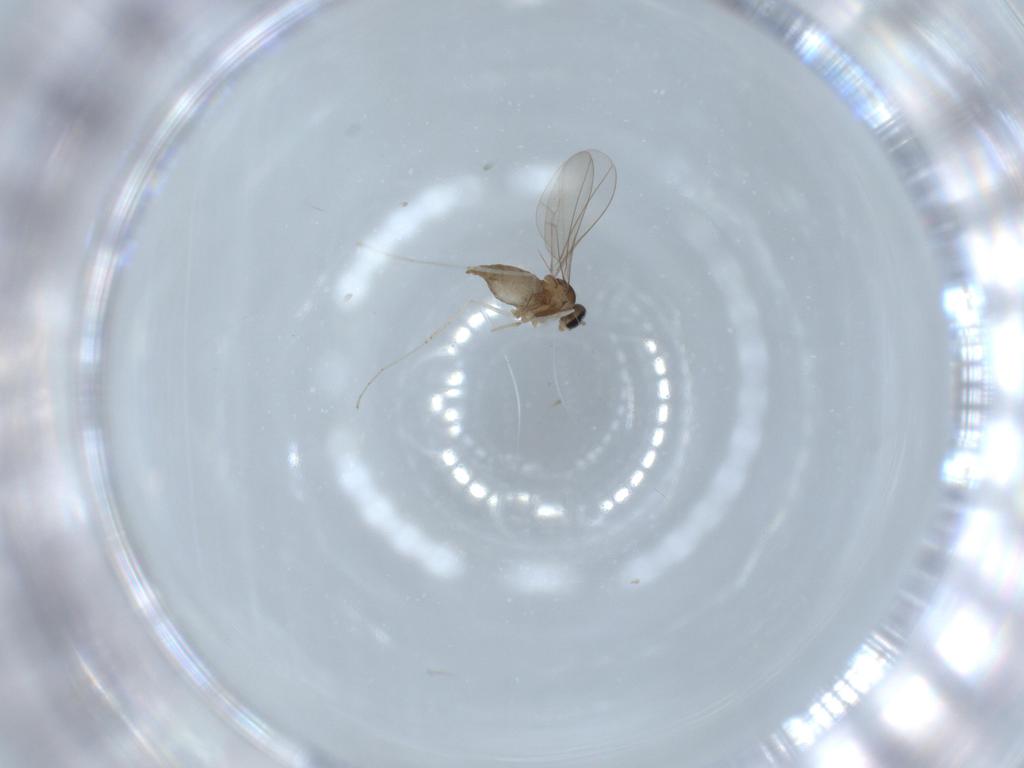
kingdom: Animalia
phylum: Arthropoda
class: Insecta
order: Diptera
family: Cecidomyiidae
